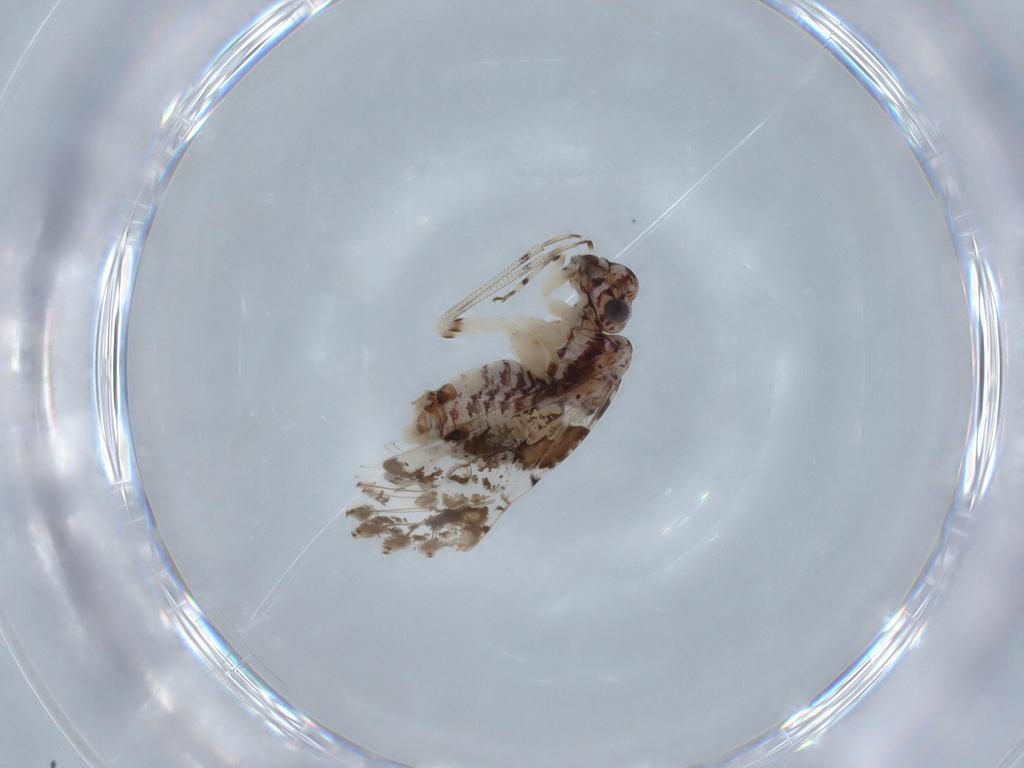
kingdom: Animalia
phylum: Arthropoda
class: Insecta
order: Psocodea
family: Psocidae
